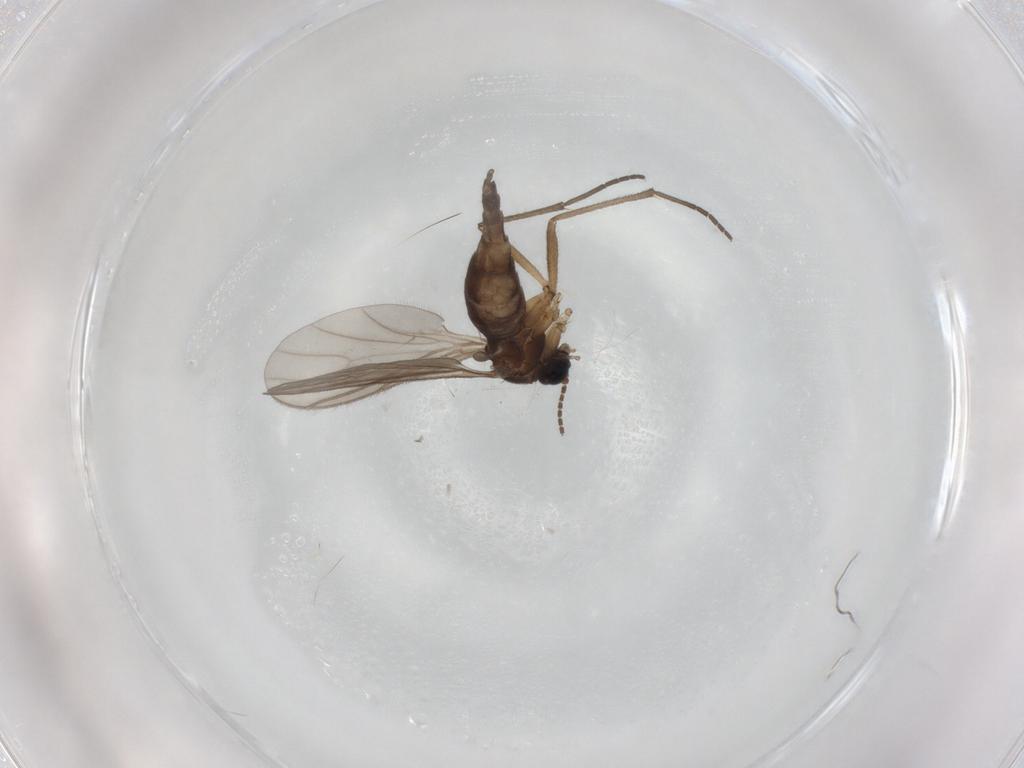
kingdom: Animalia
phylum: Arthropoda
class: Insecta
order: Diptera
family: Sciaridae
